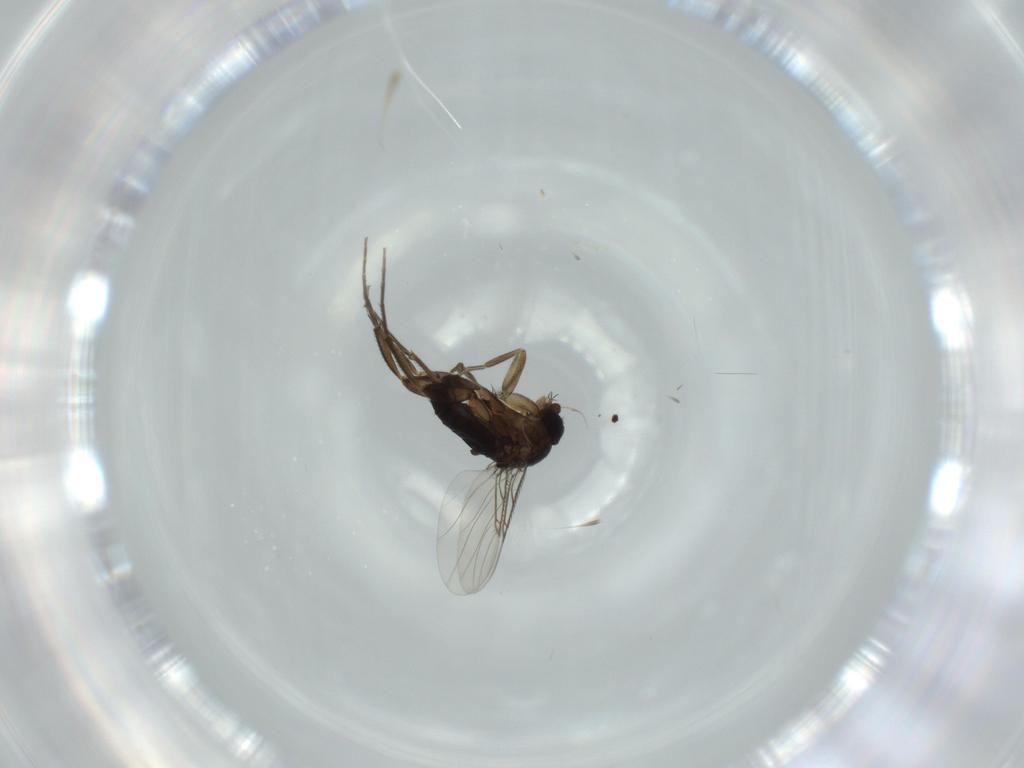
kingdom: Animalia
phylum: Arthropoda
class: Insecta
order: Diptera
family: Phoridae
